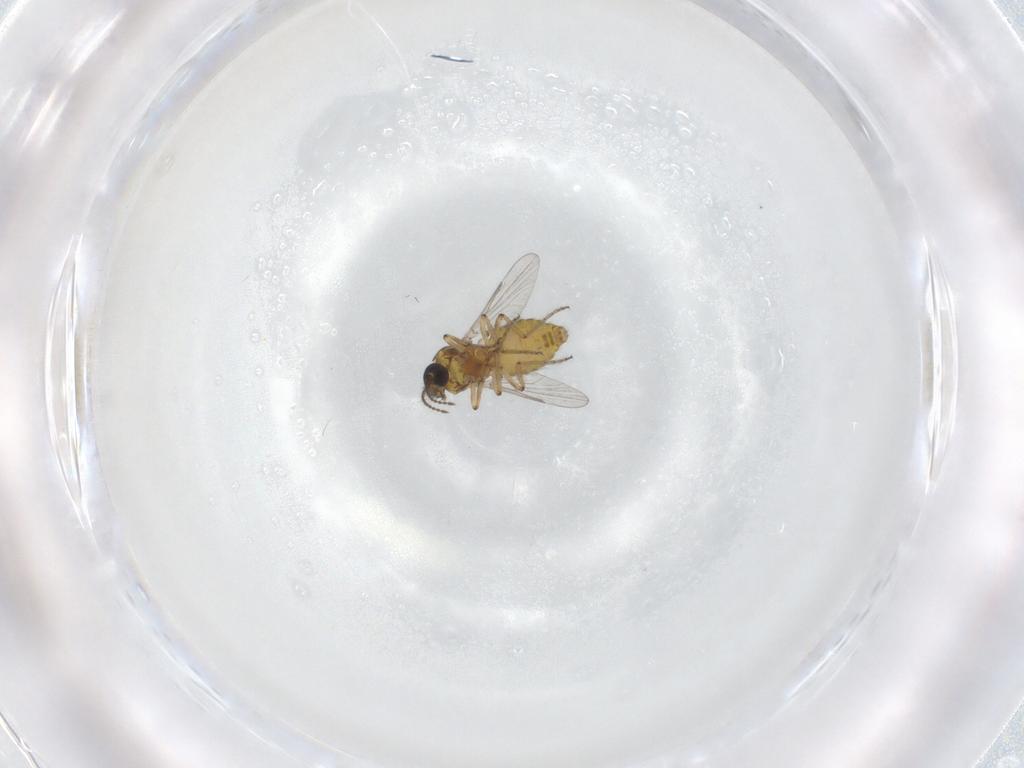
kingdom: Animalia
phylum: Arthropoda
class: Insecta
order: Diptera
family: Ceratopogonidae
